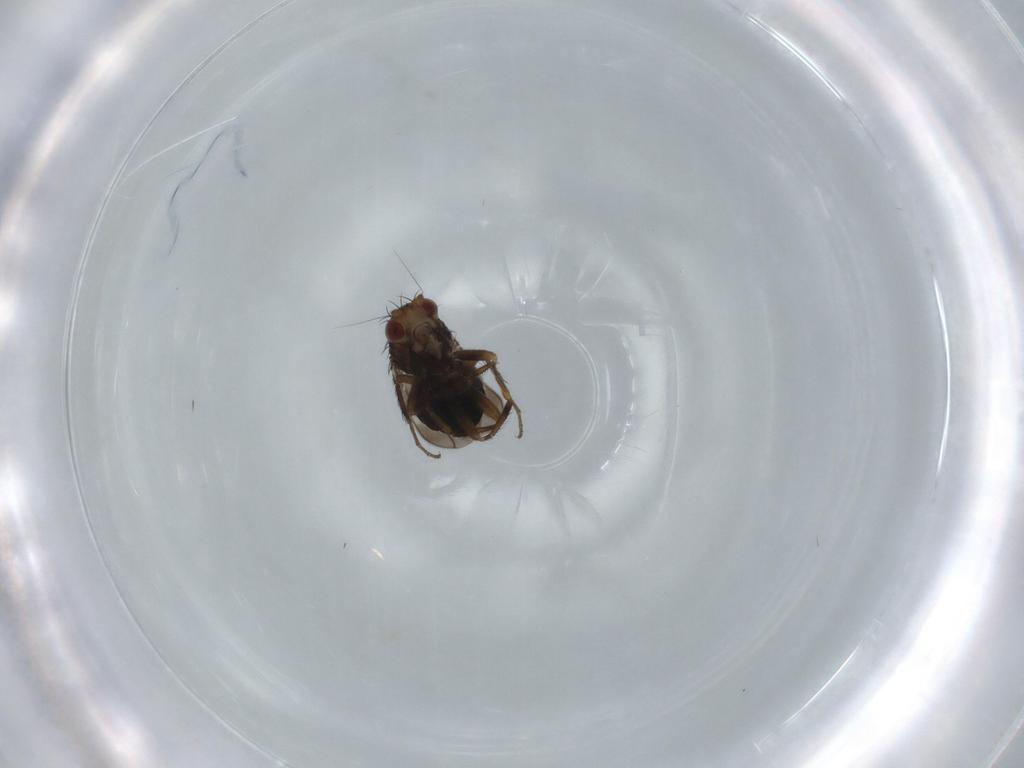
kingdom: Animalia
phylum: Arthropoda
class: Insecta
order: Diptera
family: Sphaeroceridae
